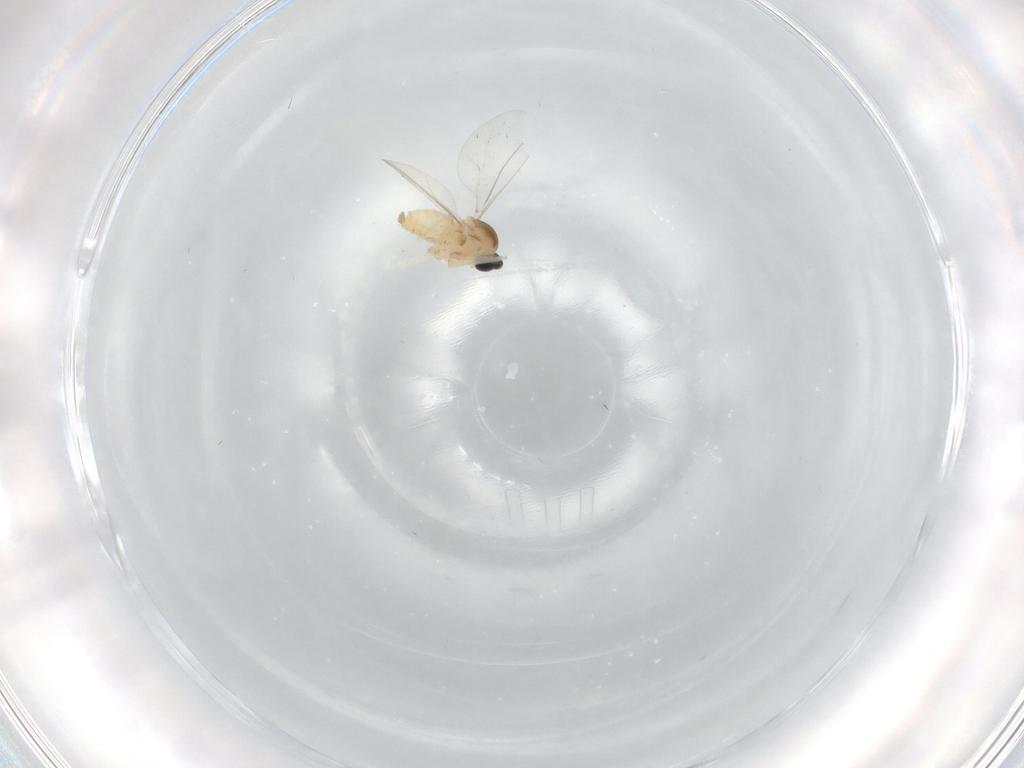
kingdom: Animalia
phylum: Arthropoda
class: Insecta
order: Diptera
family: Cecidomyiidae
